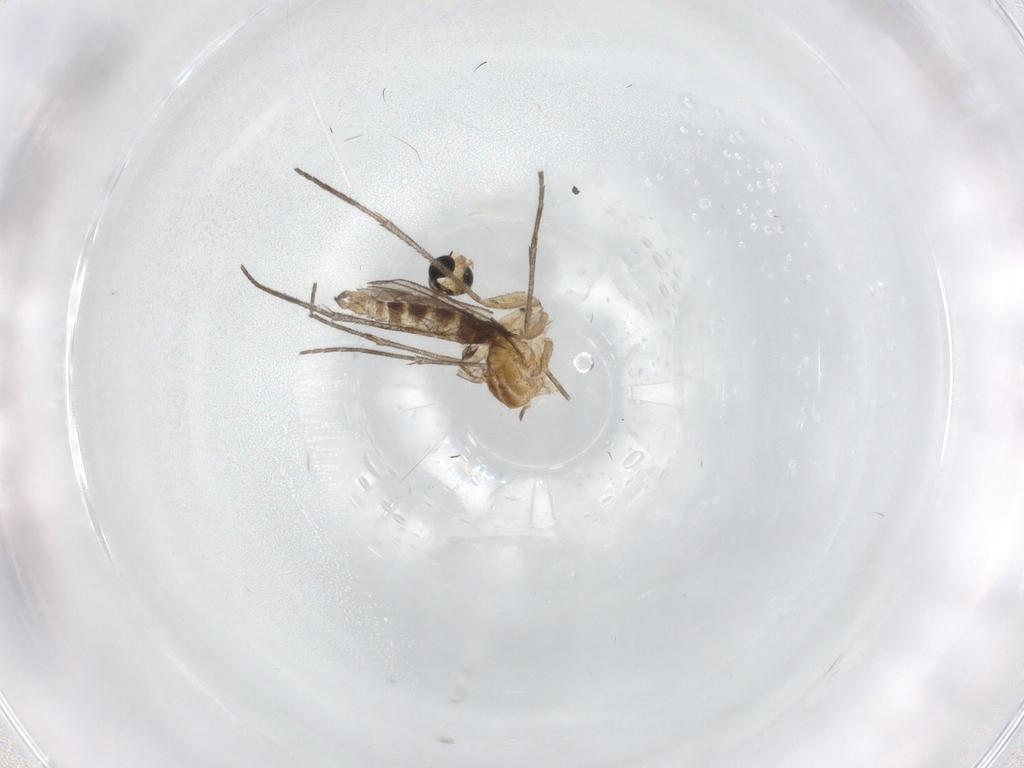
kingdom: Animalia
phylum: Arthropoda
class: Insecta
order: Diptera
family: Sciaridae
